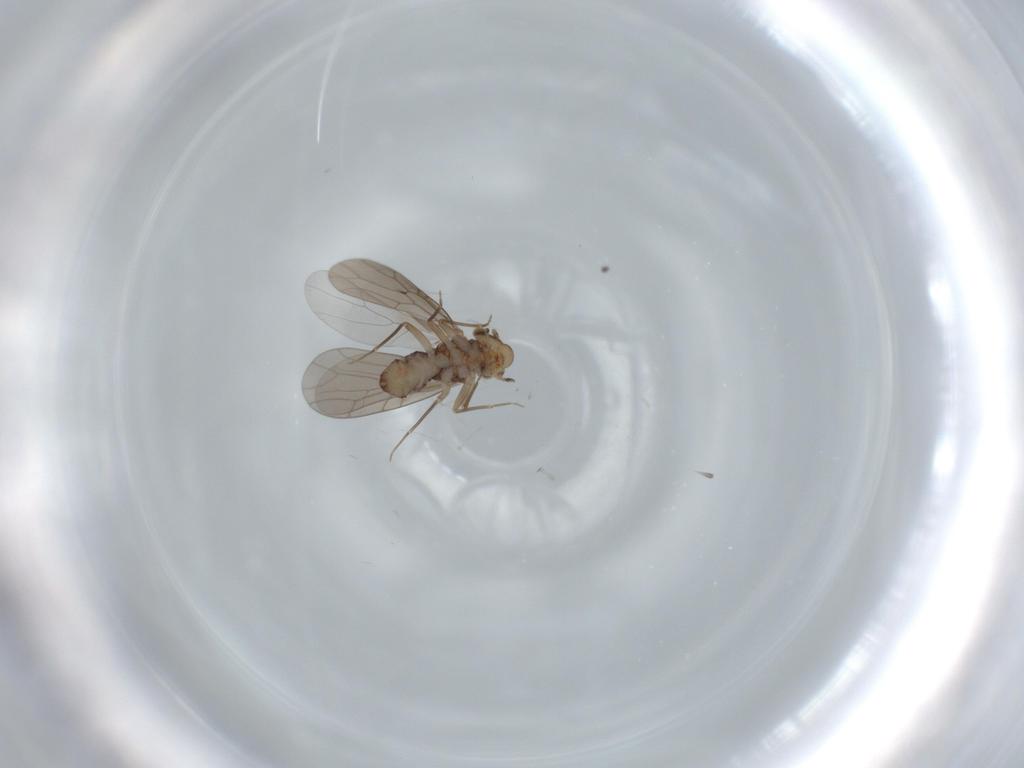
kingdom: Animalia
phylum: Arthropoda
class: Insecta
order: Psocodea
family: Lepidopsocidae
